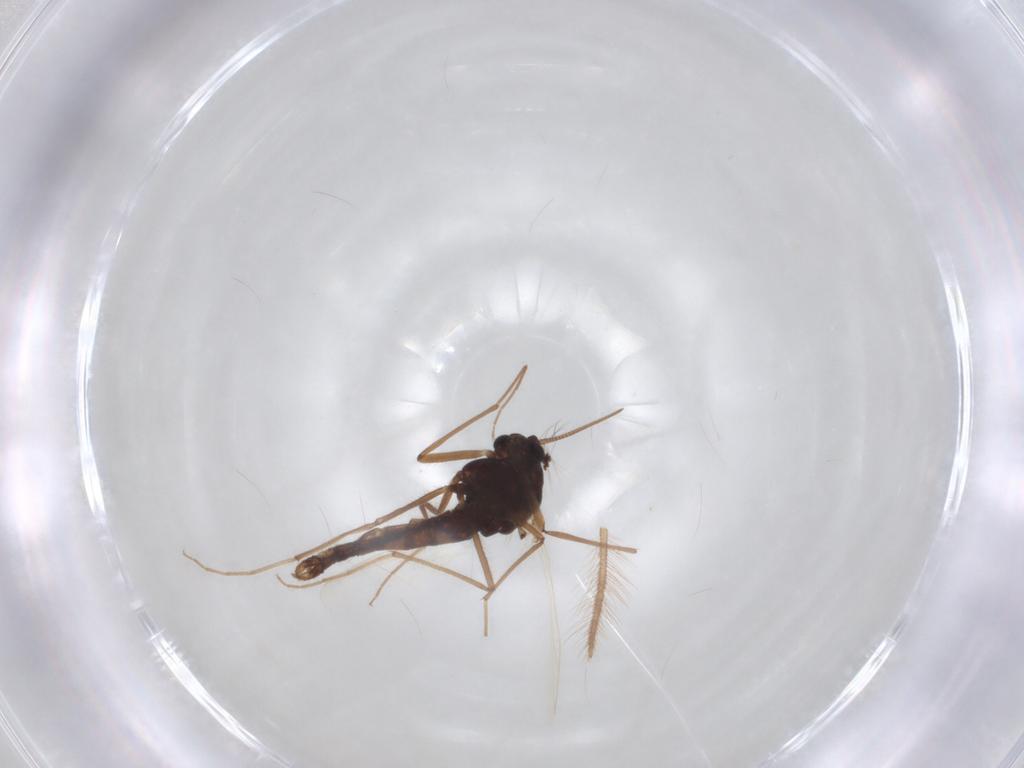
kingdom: Animalia
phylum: Arthropoda
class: Insecta
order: Diptera
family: Chironomidae
